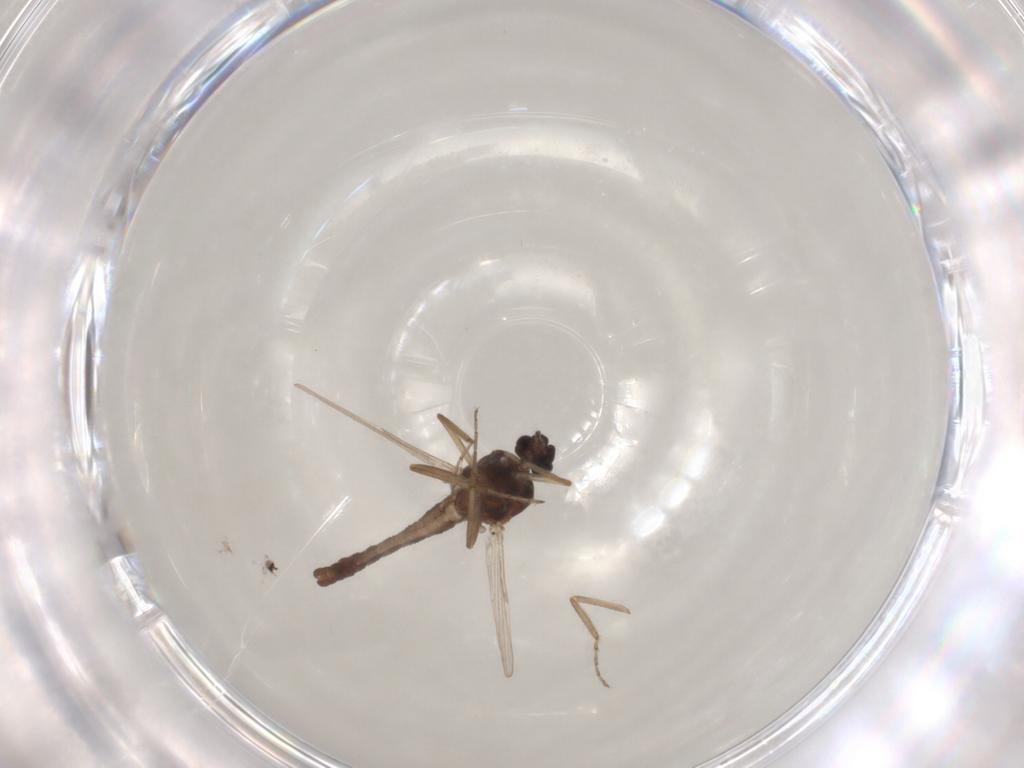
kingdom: Animalia
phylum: Arthropoda
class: Insecta
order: Diptera
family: Ceratopogonidae
